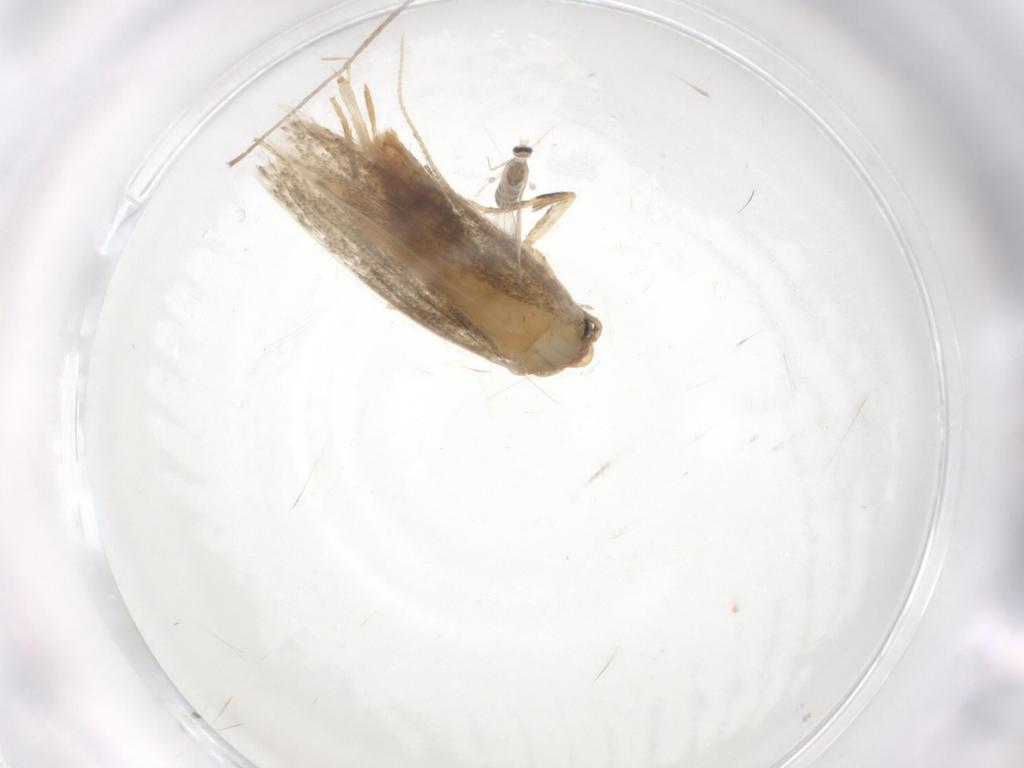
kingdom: Animalia
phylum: Arthropoda
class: Insecta
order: Diptera
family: Cecidomyiidae
